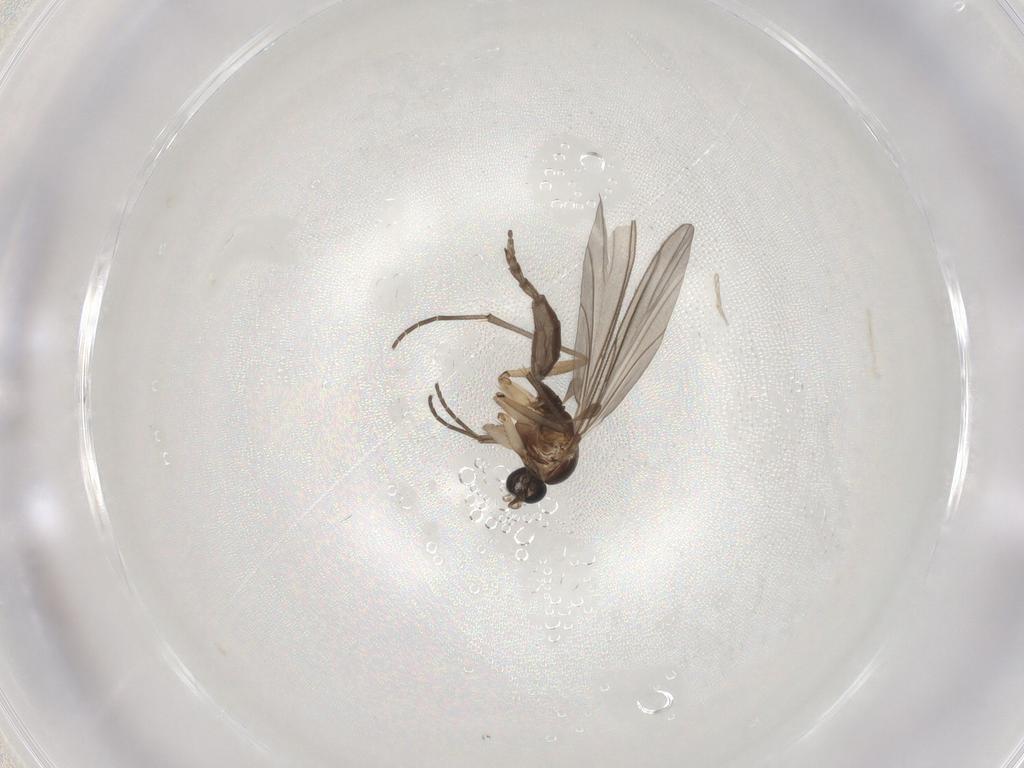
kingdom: Animalia
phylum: Arthropoda
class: Insecta
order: Diptera
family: Sciaridae
